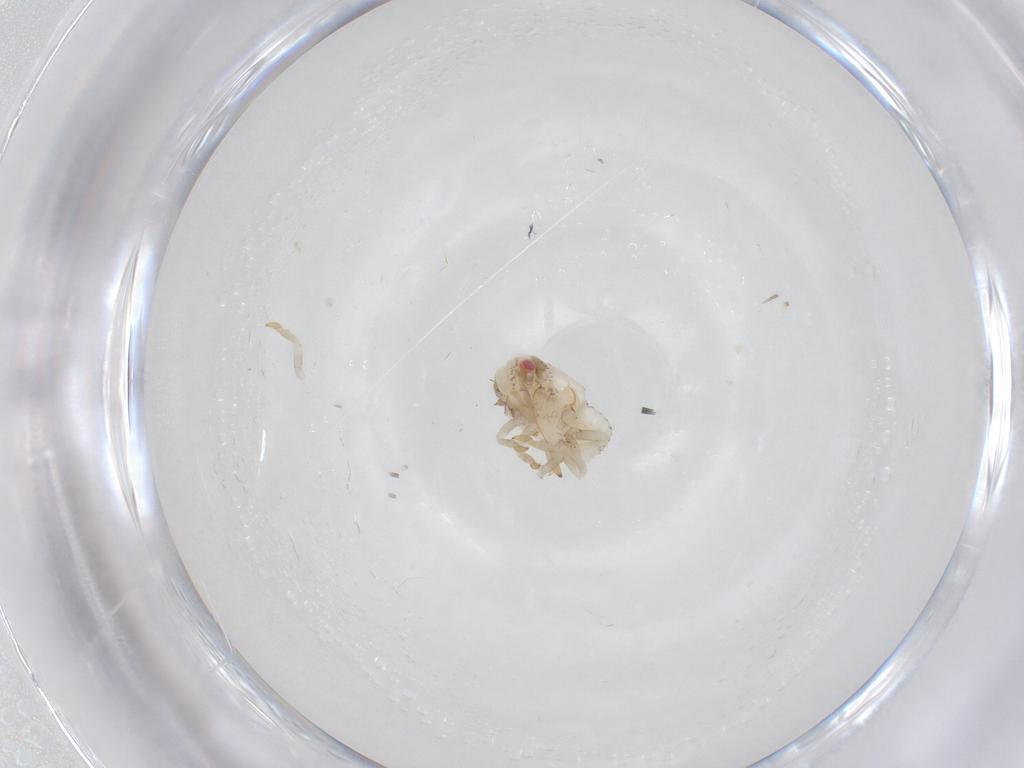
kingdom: Animalia
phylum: Arthropoda
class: Insecta
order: Hemiptera
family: Acanaloniidae
